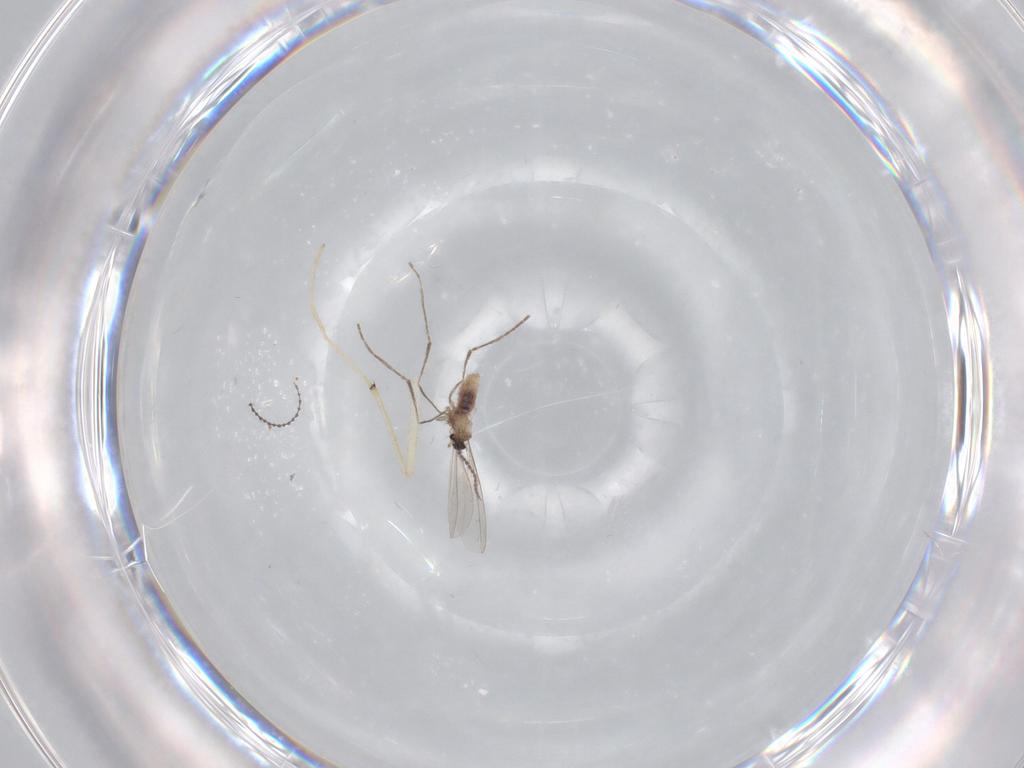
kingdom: Animalia
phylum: Arthropoda
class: Insecta
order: Diptera
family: Chironomidae
